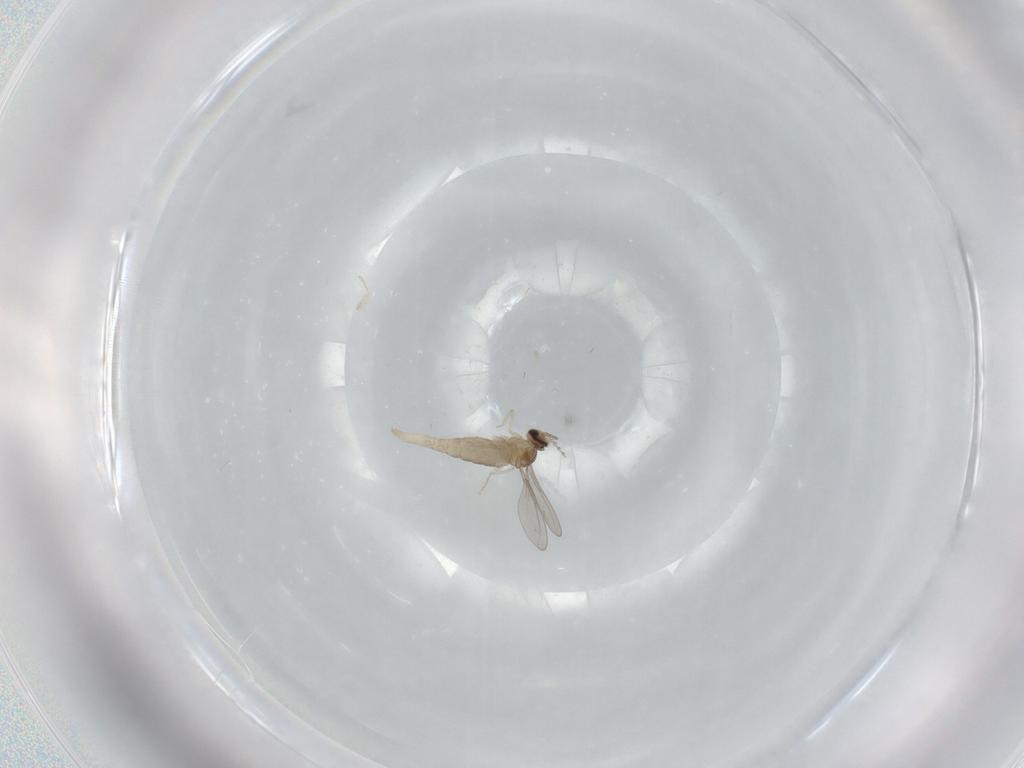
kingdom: Animalia
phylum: Arthropoda
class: Insecta
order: Diptera
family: Cecidomyiidae
